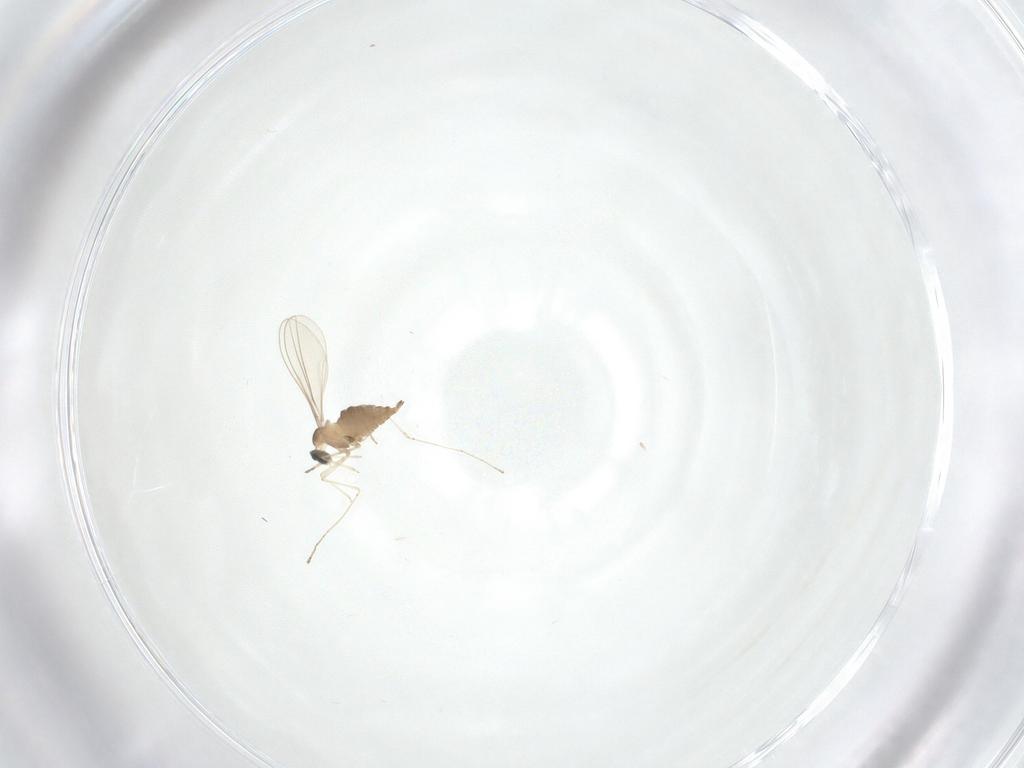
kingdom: Animalia
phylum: Arthropoda
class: Insecta
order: Diptera
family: Cecidomyiidae
